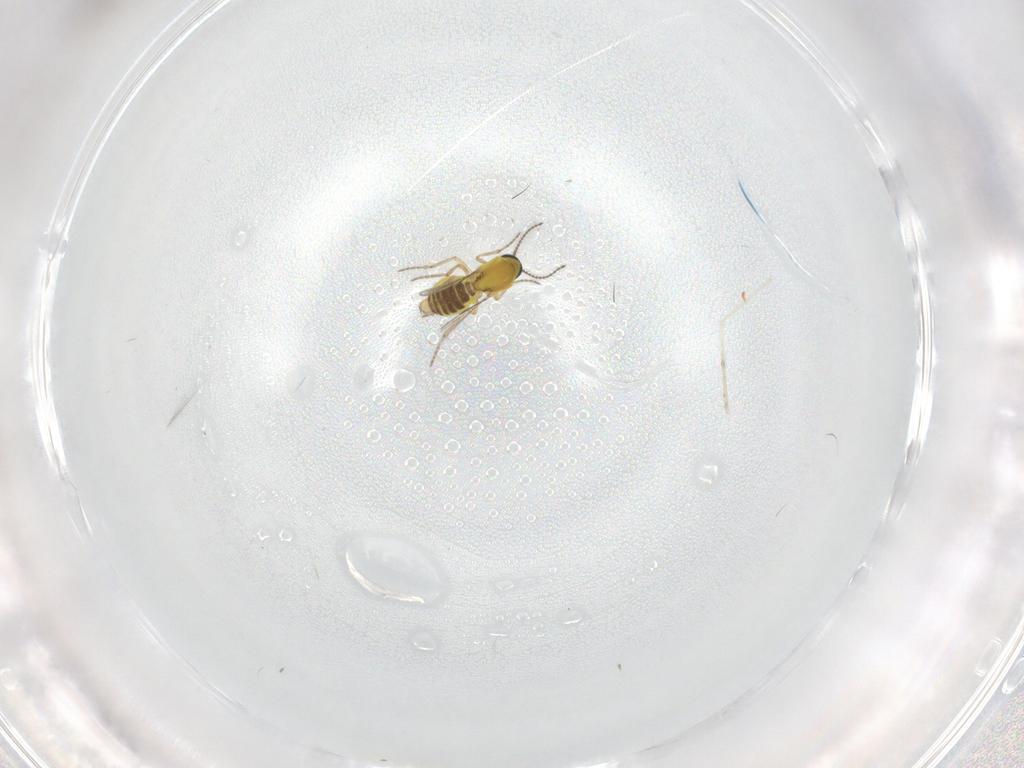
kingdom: Animalia
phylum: Arthropoda
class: Insecta
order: Diptera
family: Ceratopogonidae
